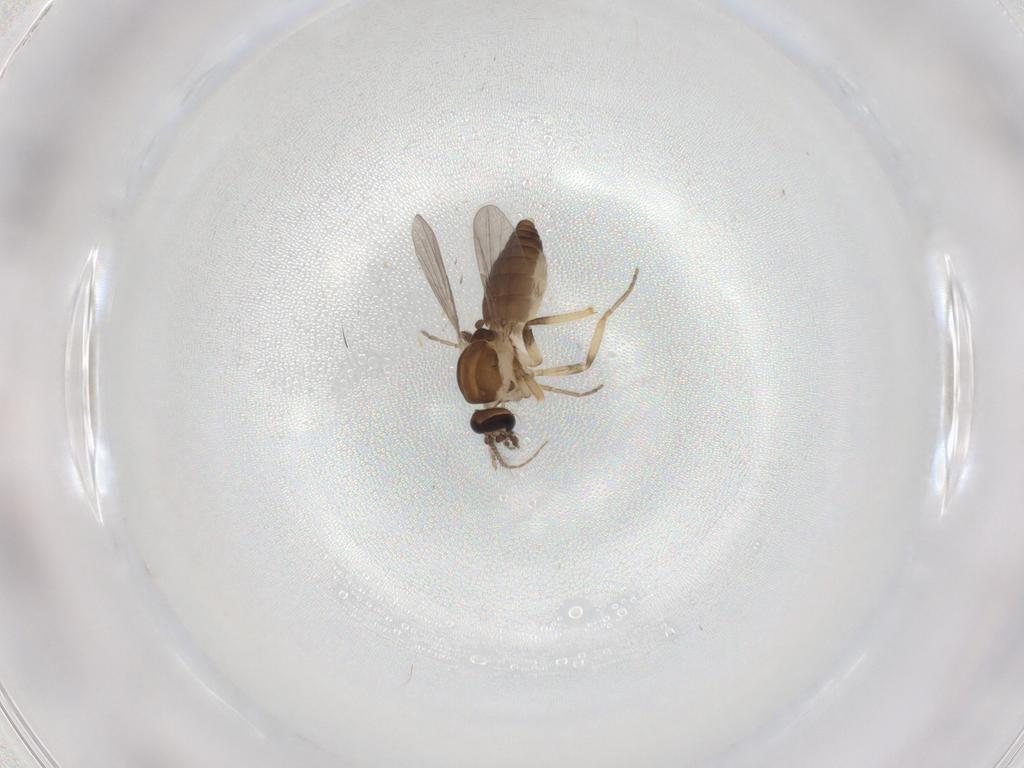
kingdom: Animalia
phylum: Arthropoda
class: Insecta
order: Diptera
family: Ceratopogonidae
